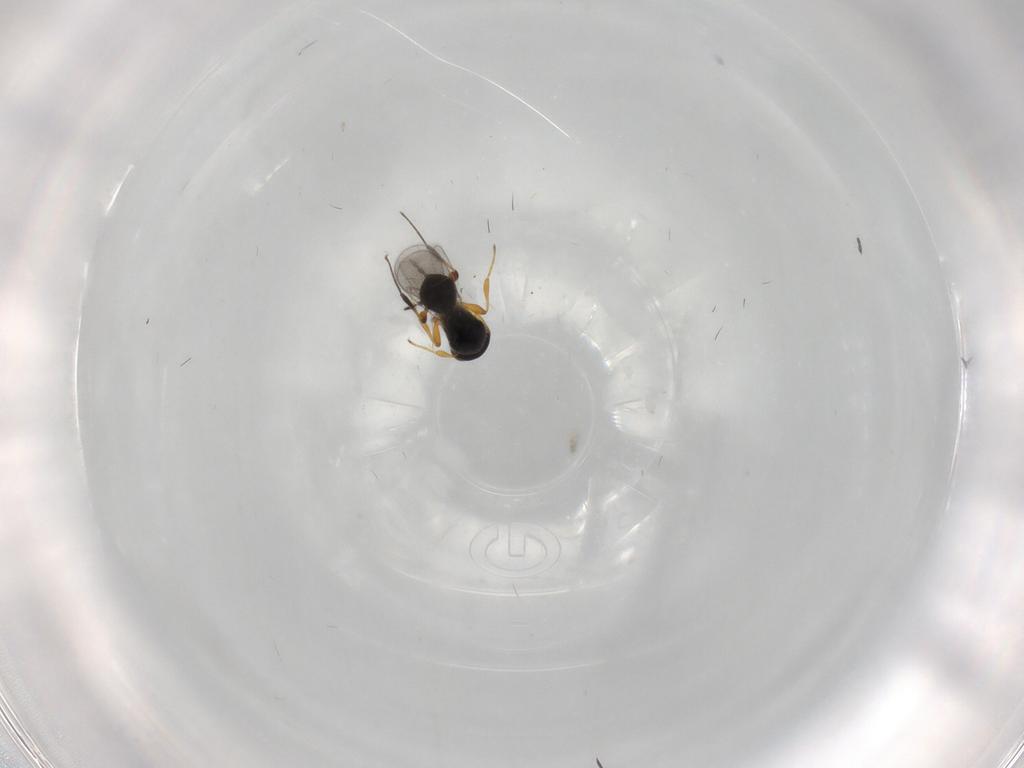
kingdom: Animalia
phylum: Arthropoda
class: Insecta
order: Hymenoptera
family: Platygastridae
